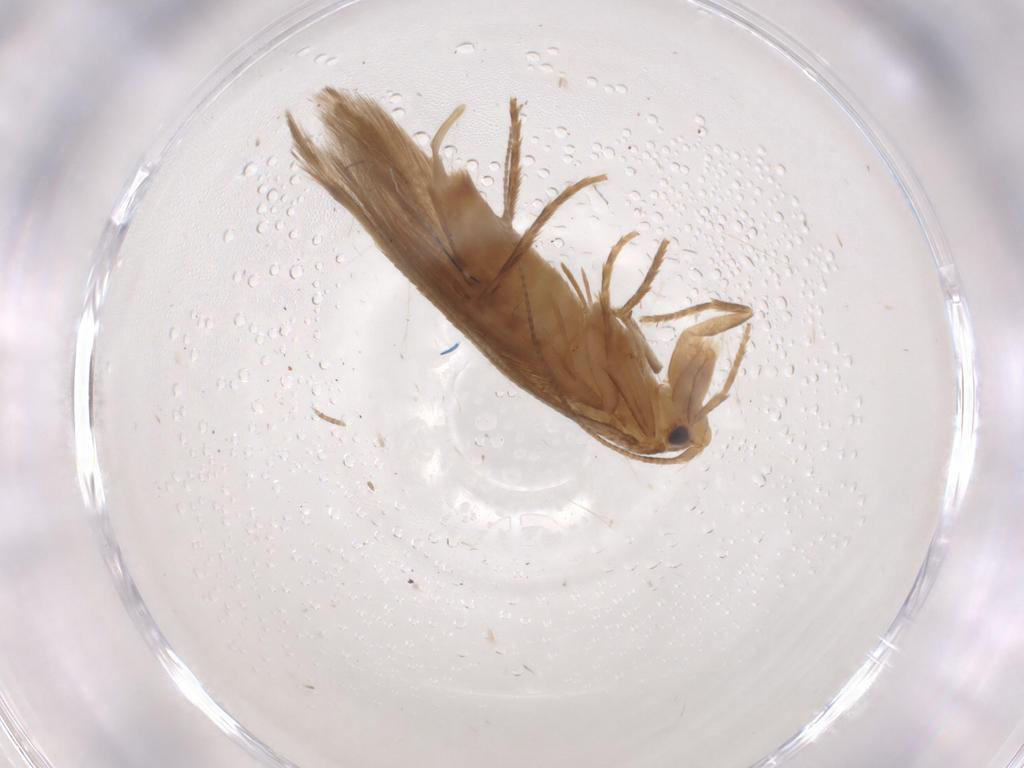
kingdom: Animalia
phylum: Arthropoda
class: Insecta
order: Lepidoptera
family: Tineidae
